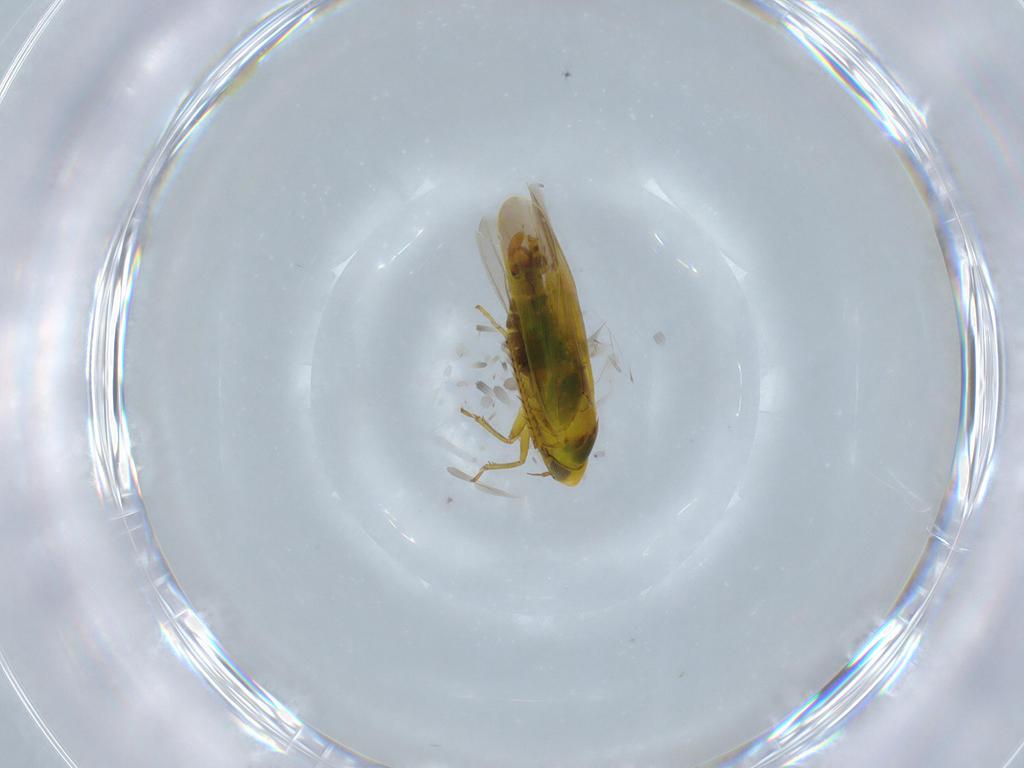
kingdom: Animalia
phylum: Arthropoda
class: Insecta
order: Hemiptera
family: Cicadellidae
